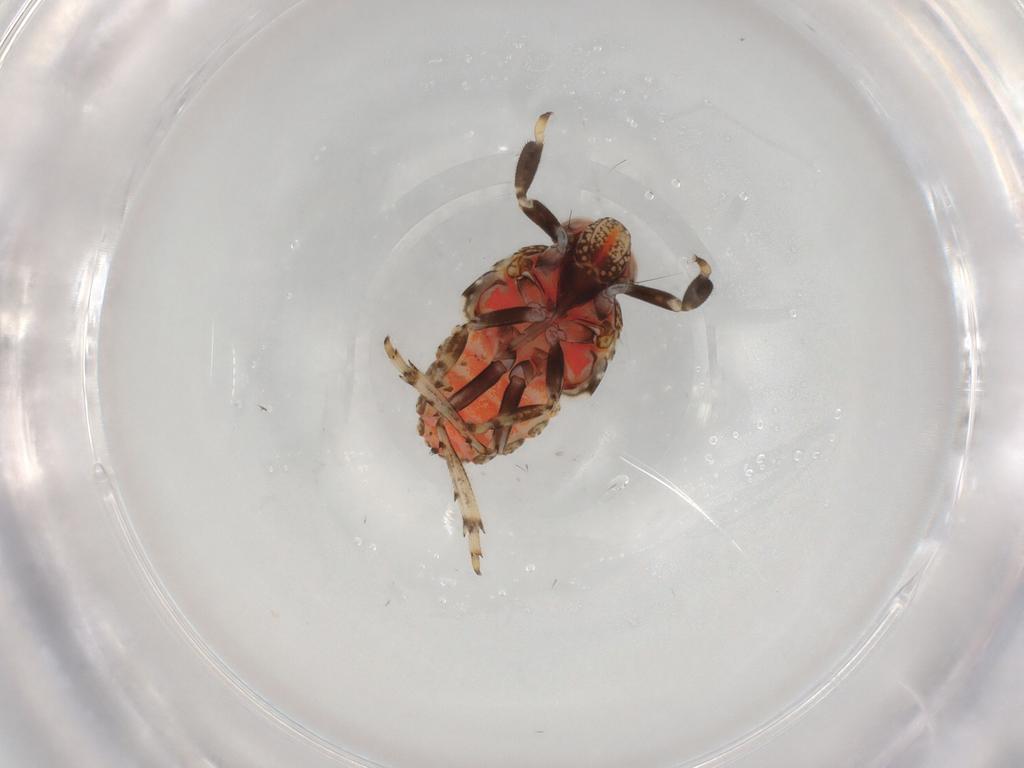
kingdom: Animalia
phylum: Arthropoda
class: Insecta
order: Hemiptera
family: Issidae
